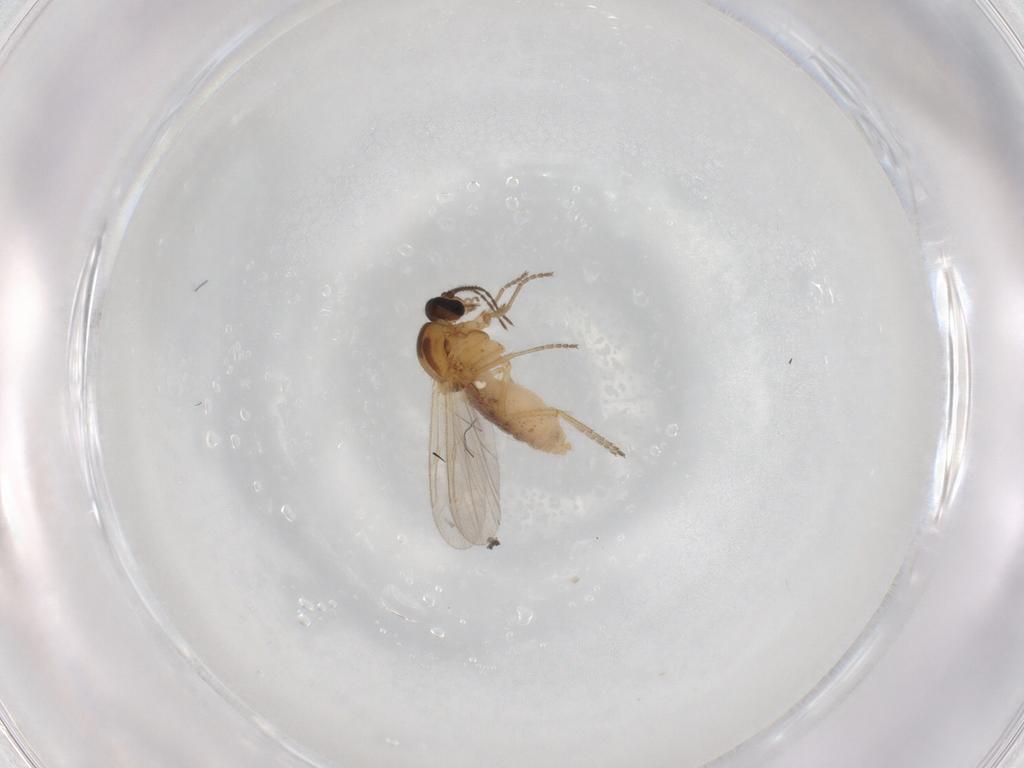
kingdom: Animalia
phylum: Arthropoda
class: Insecta
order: Diptera
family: Ceratopogonidae
